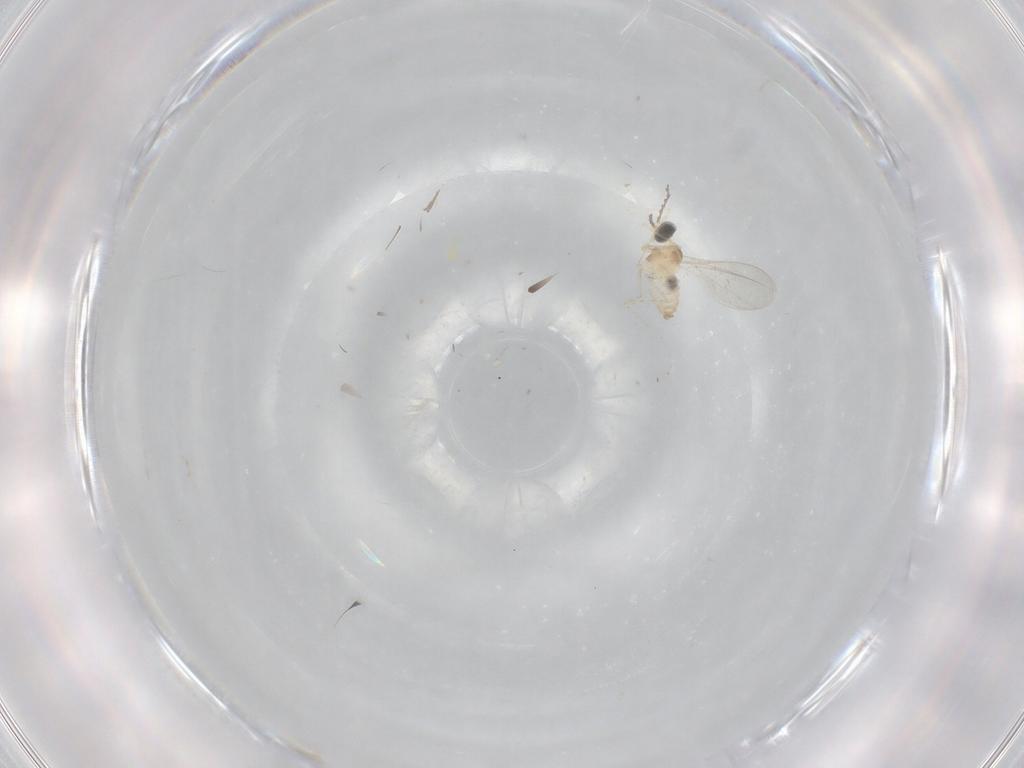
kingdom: Animalia
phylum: Arthropoda
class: Insecta
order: Diptera
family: Cecidomyiidae
